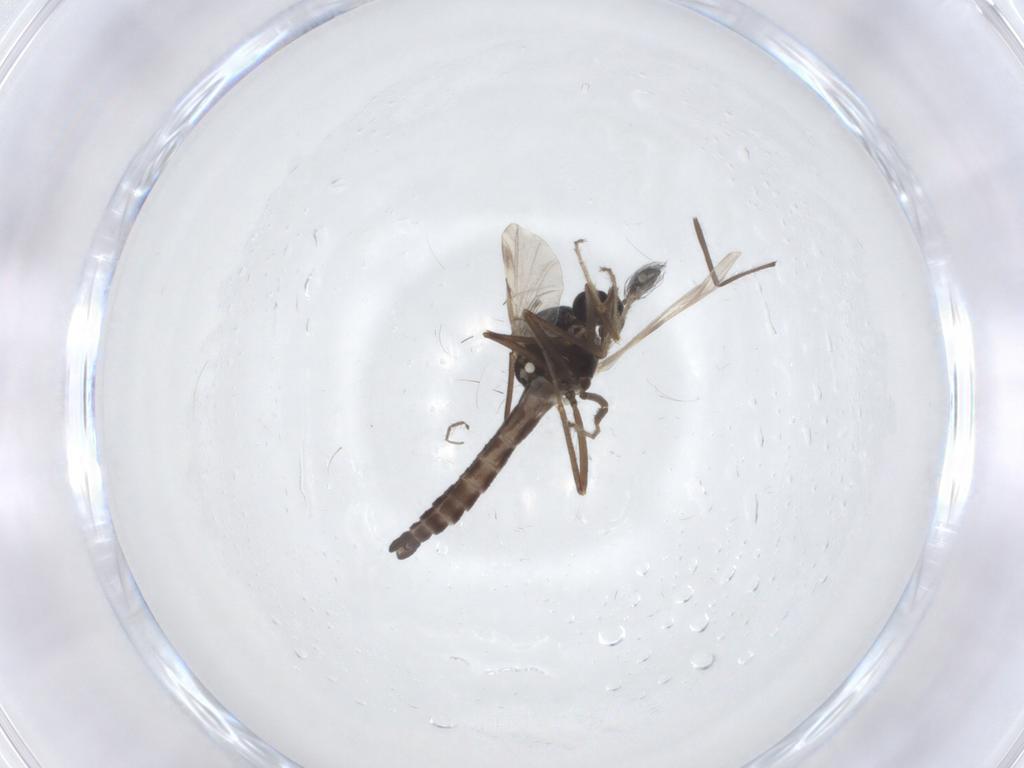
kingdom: Animalia
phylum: Arthropoda
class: Insecta
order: Diptera
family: Ceratopogonidae
